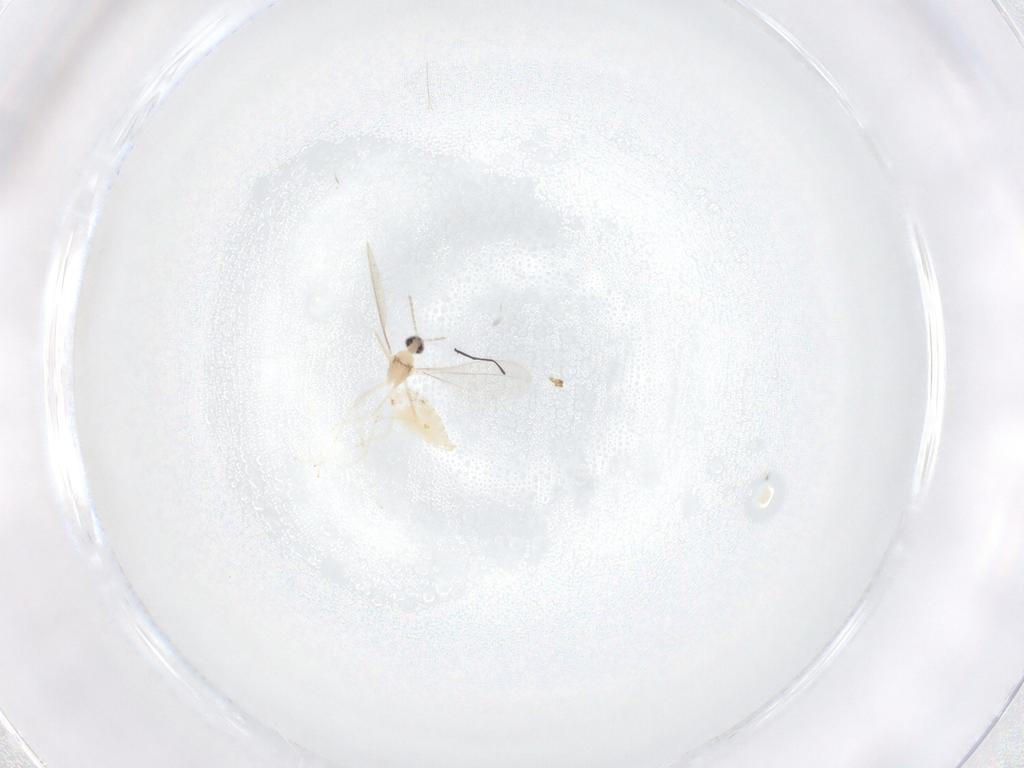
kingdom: Animalia
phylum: Arthropoda
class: Insecta
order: Diptera
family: Cecidomyiidae
